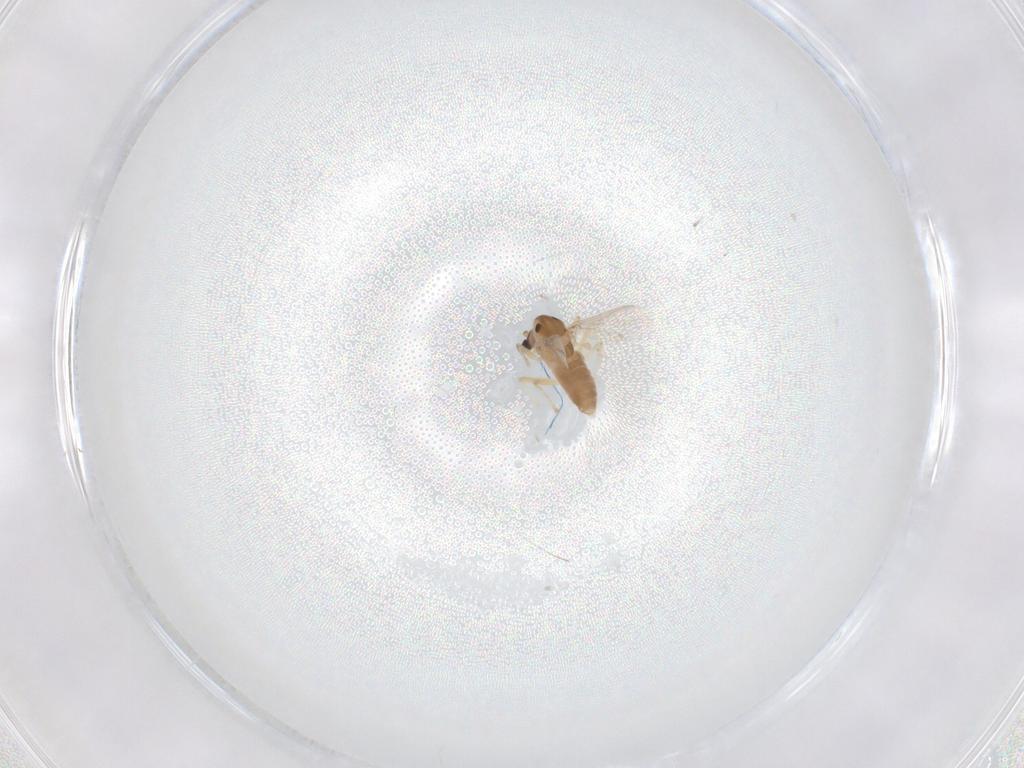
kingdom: Animalia
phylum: Arthropoda
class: Insecta
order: Diptera
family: Chironomidae
